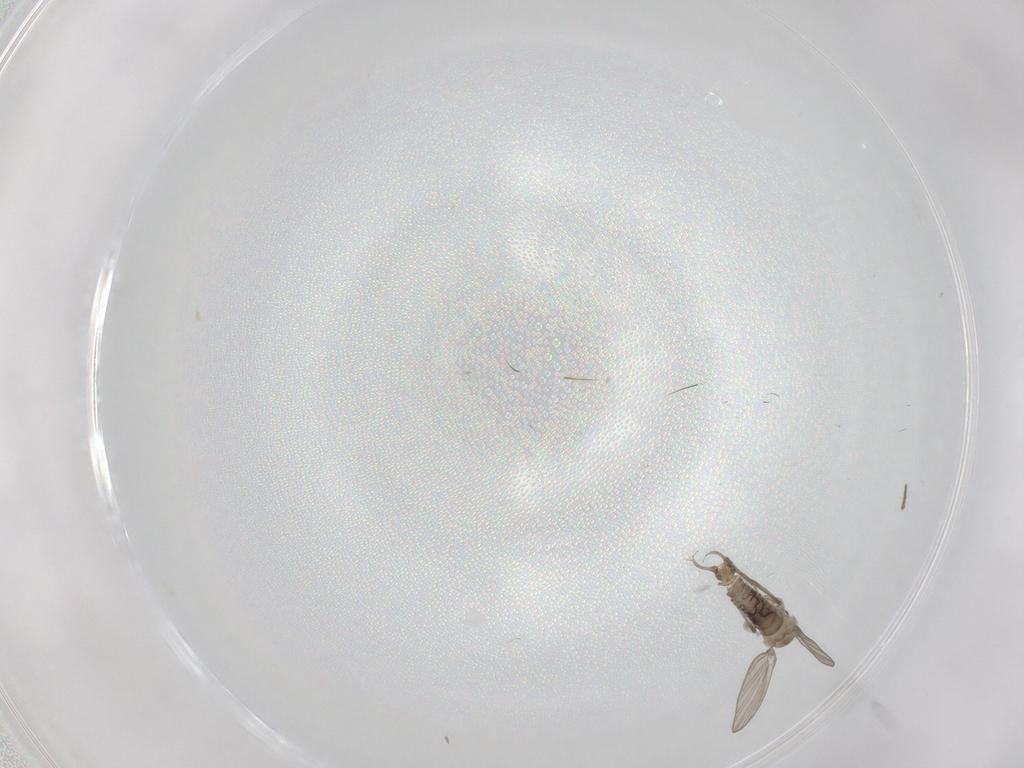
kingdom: Animalia
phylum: Arthropoda
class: Insecta
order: Diptera
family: Psychodidae
